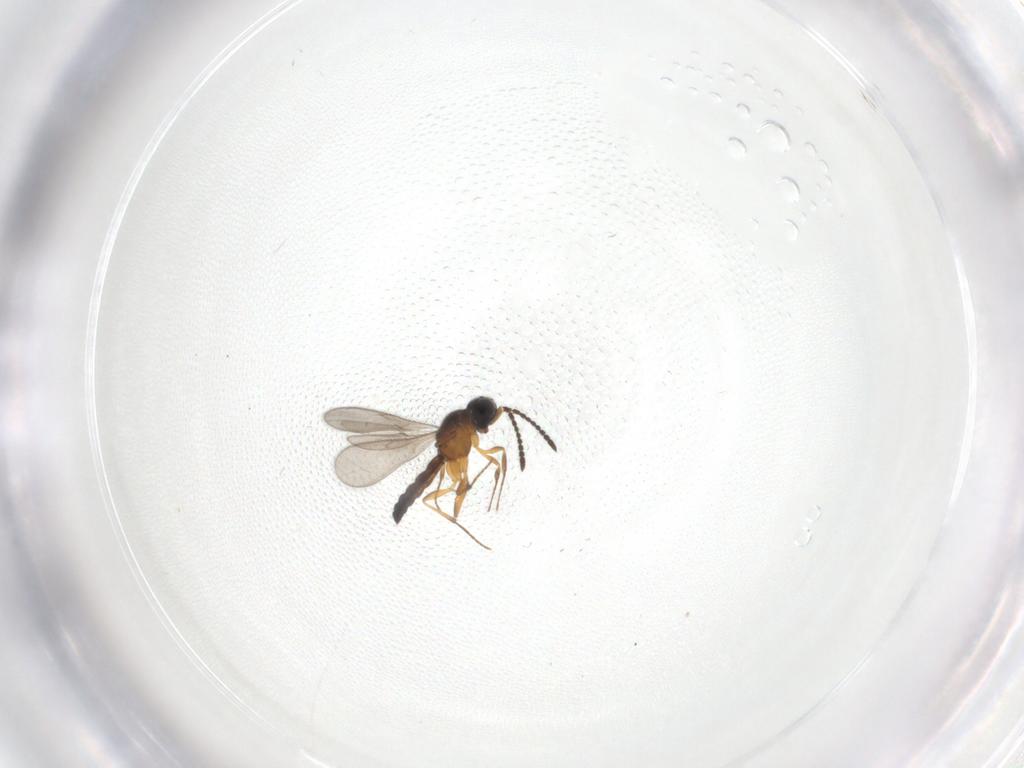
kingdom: Animalia
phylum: Arthropoda
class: Insecta
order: Hymenoptera
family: Scelionidae
